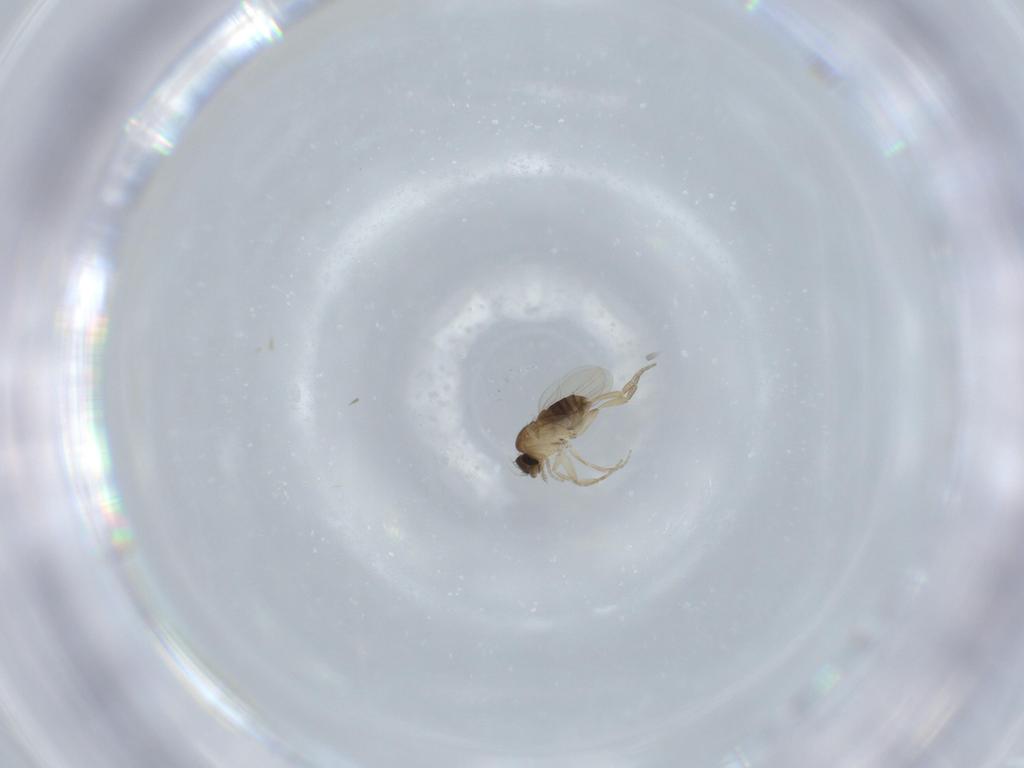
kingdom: Animalia
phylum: Arthropoda
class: Insecta
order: Diptera
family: Phoridae
